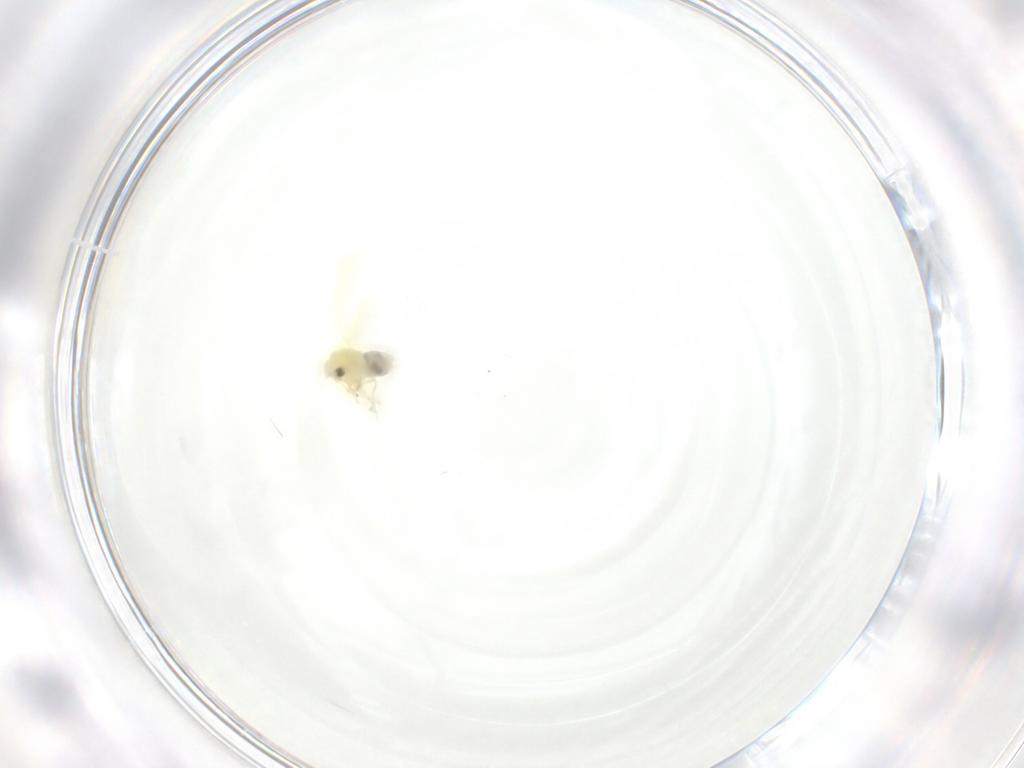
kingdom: Animalia
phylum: Arthropoda
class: Insecta
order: Hemiptera
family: Aleyrodidae
